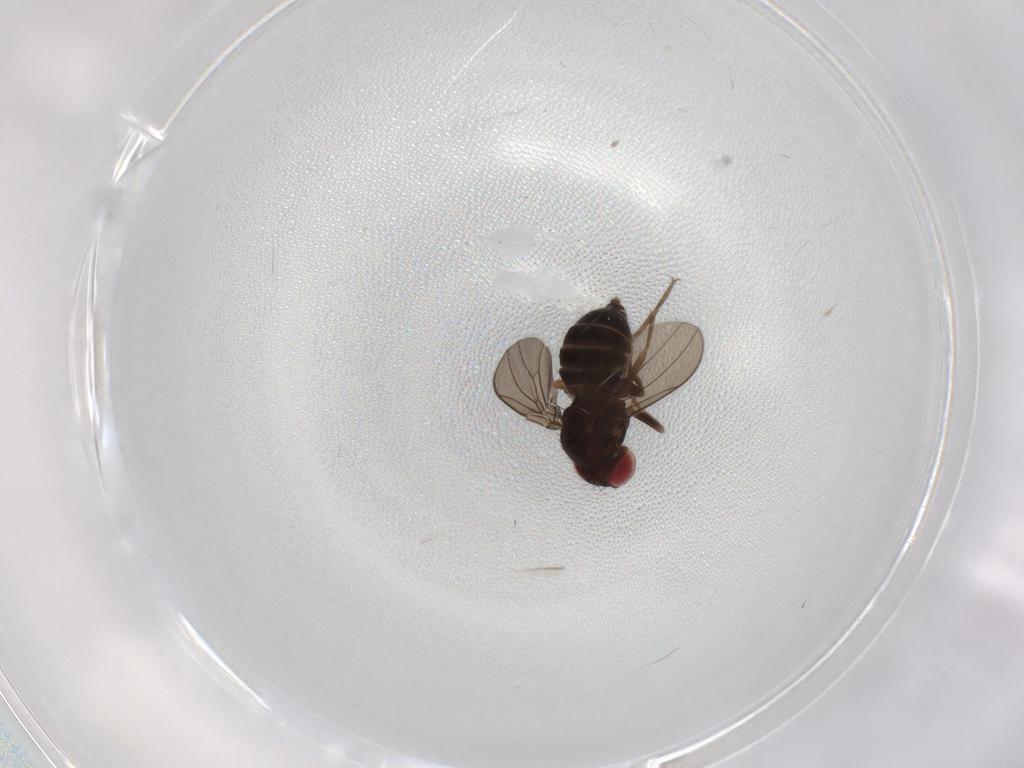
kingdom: Animalia
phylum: Arthropoda
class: Insecta
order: Diptera
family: Drosophilidae
